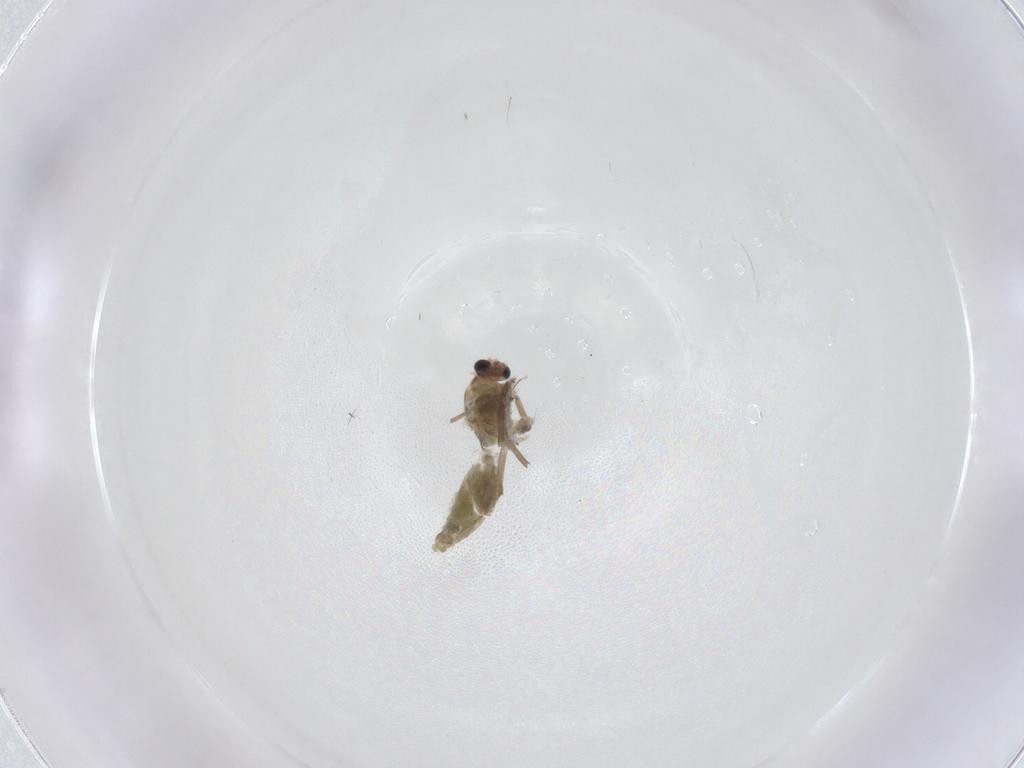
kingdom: Animalia
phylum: Arthropoda
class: Insecta
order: Diptera
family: Chironomidae
